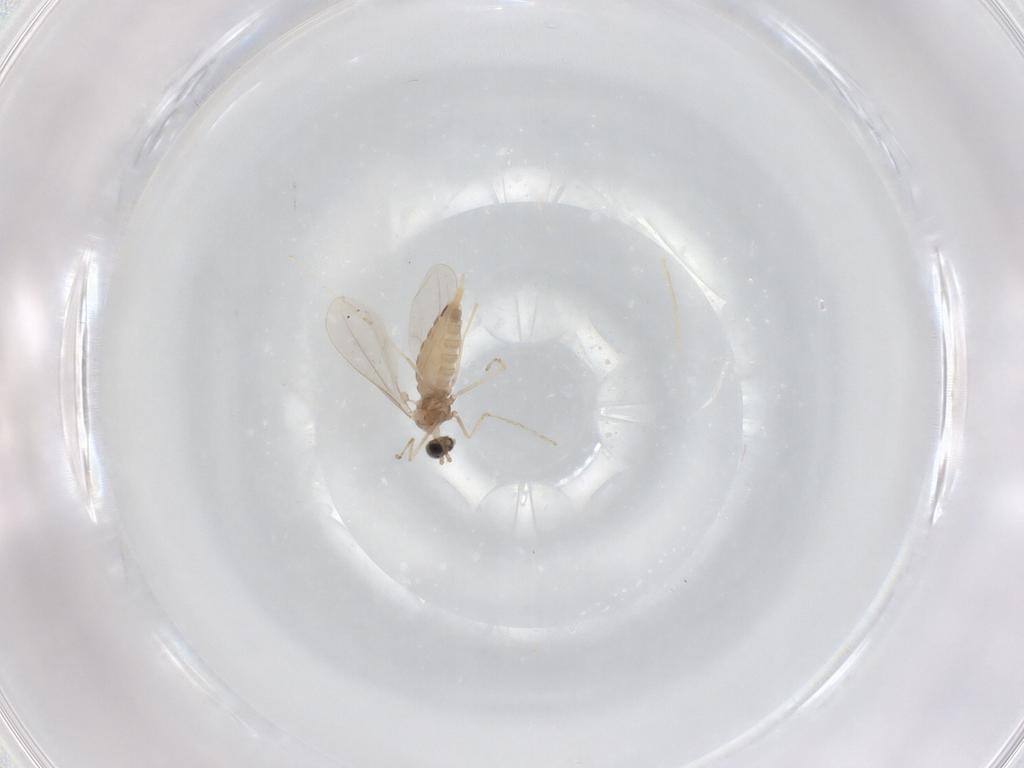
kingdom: Animalia
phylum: Arthropoda
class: Insecta
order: Diptera
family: Cecidomyiidae
